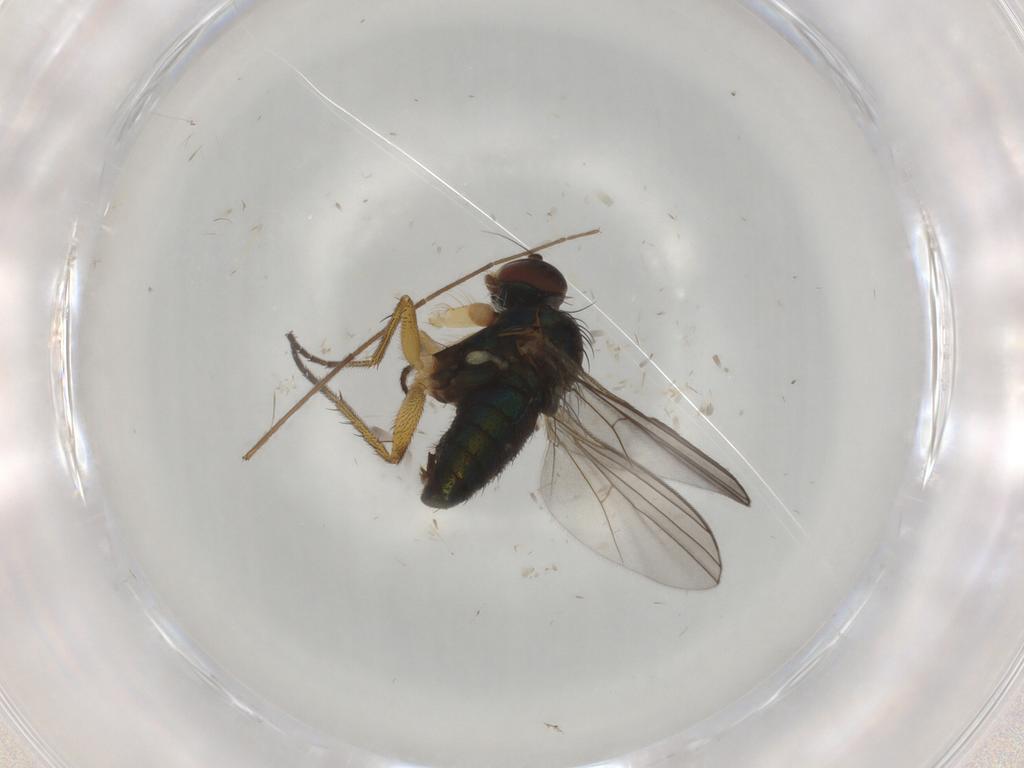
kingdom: Animalia
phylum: Arthropoda
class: Insecta
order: Diptera
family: Dolichopodidae
